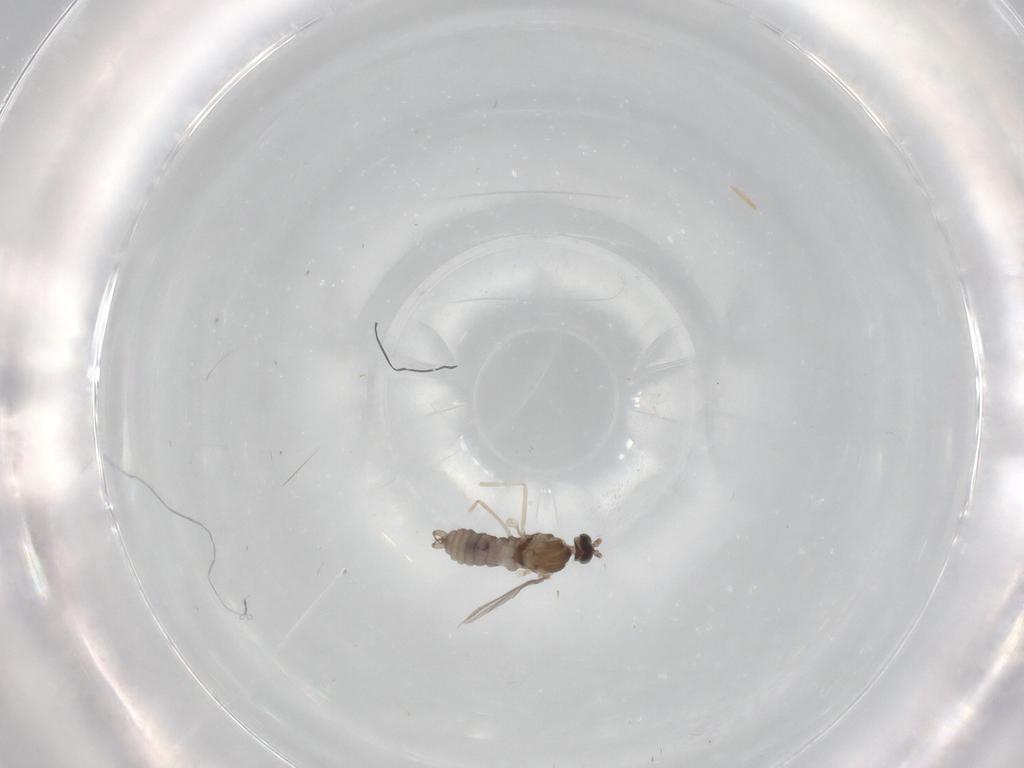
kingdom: Animalia
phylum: Arthropoda
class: Insecta
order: Diptera
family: Cecidomyiidae
